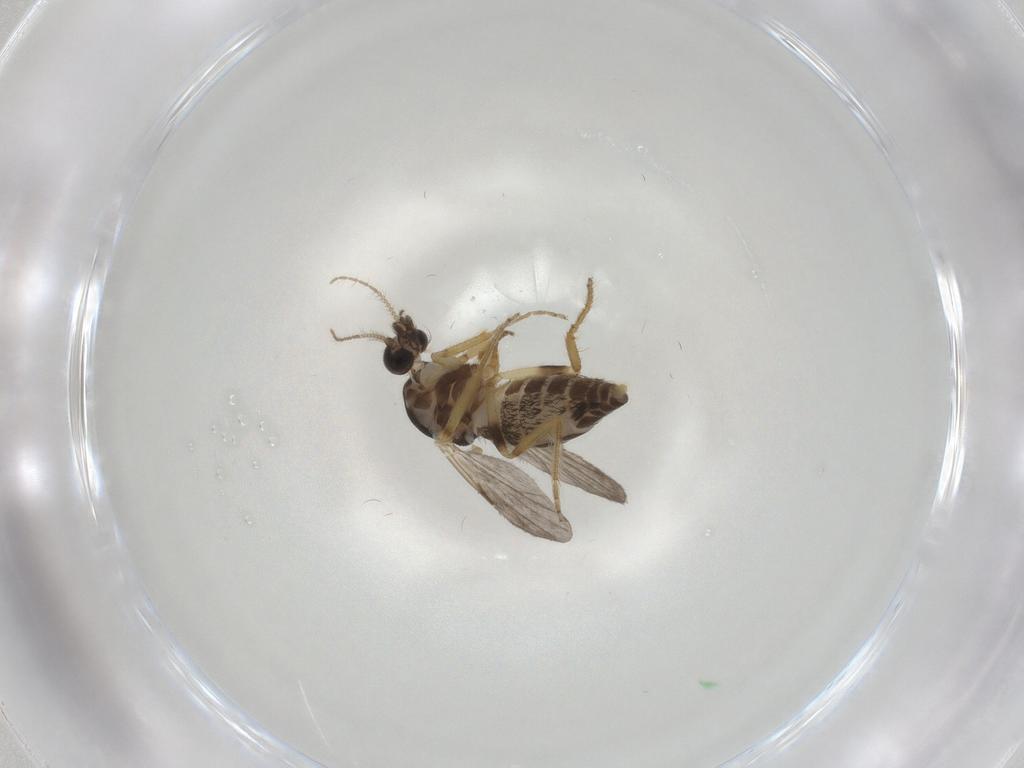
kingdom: Animalia
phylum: Arthropoda
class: Insecta
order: Diptera
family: Ceratopogonidae
